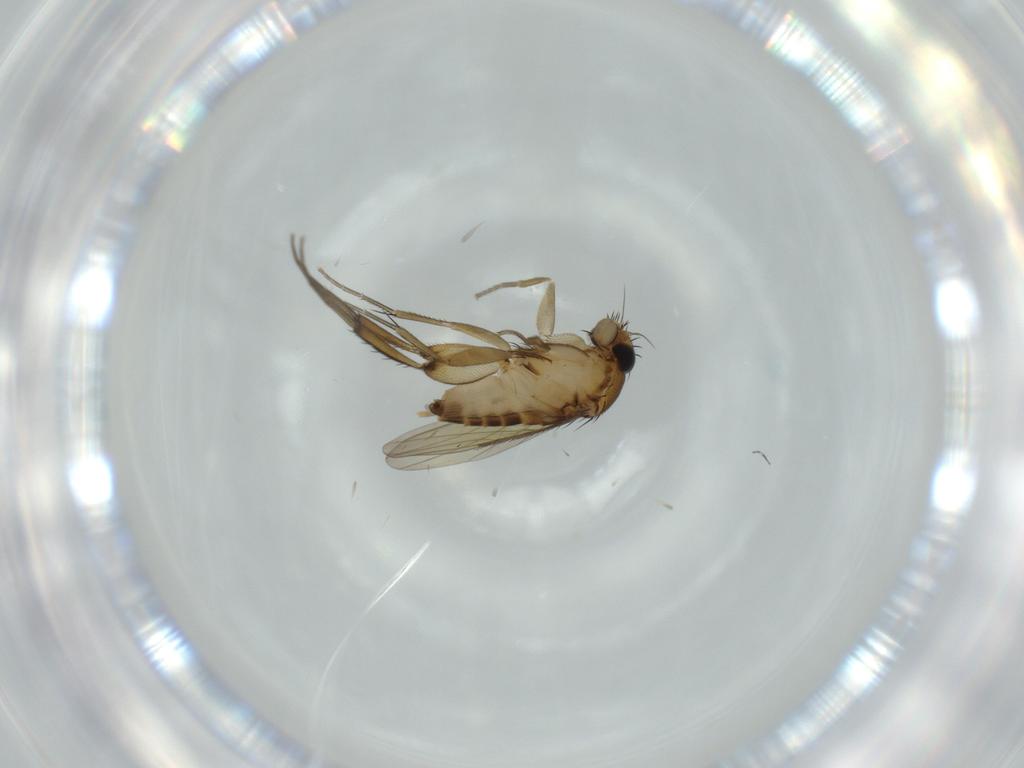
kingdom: Animalia
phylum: Arthropoda
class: Insecta
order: Diptera
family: Phoridae
